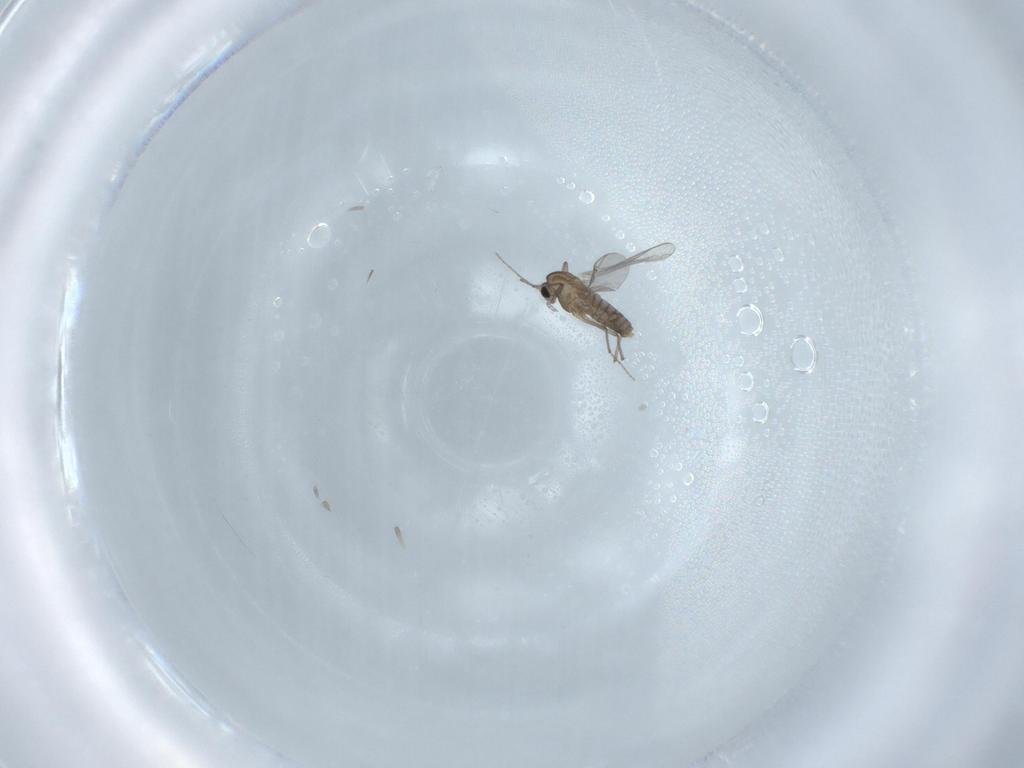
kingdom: Animalia
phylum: Arthropoda
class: Insecta
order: Diptera
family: Chironomidae
